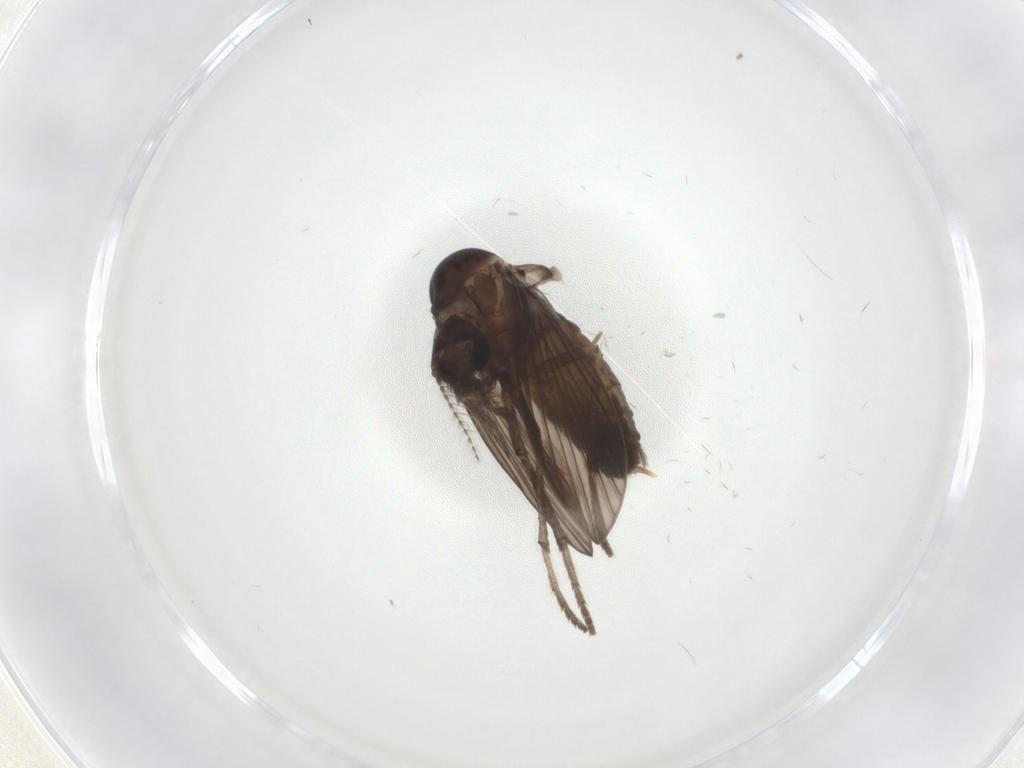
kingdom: Animalia
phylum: Arthropoda
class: Insecta
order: Diptera
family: Psychodidae
